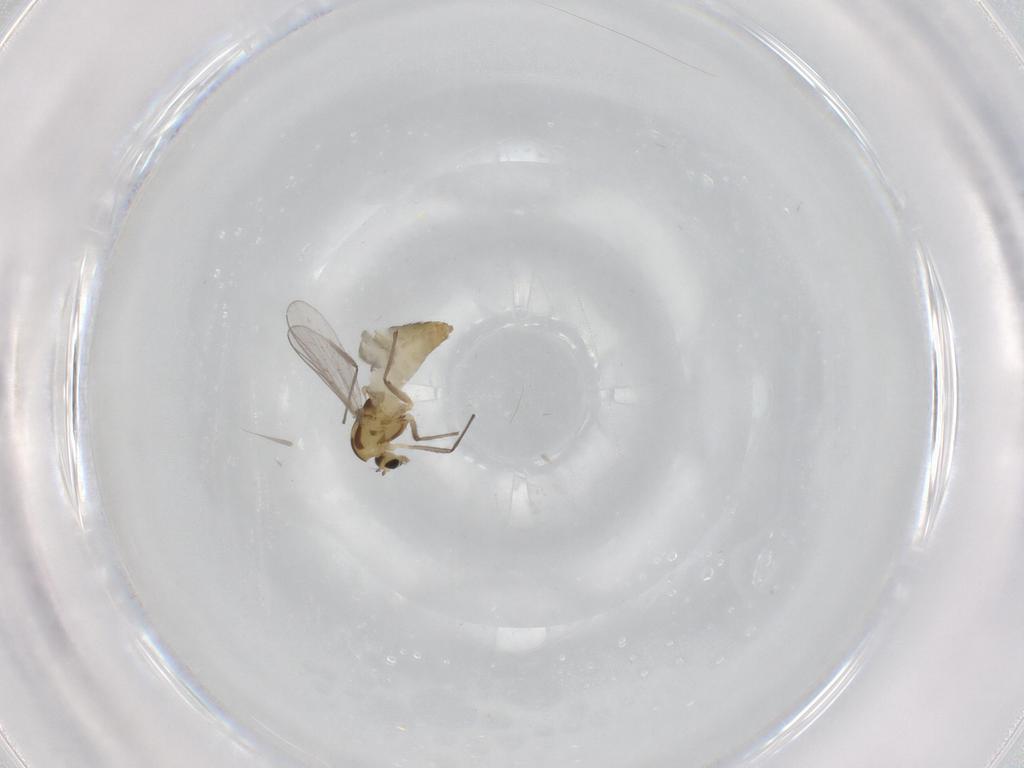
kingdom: Animalia
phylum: Arthropoda
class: Insecta
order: Diptera
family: Chironomidae
